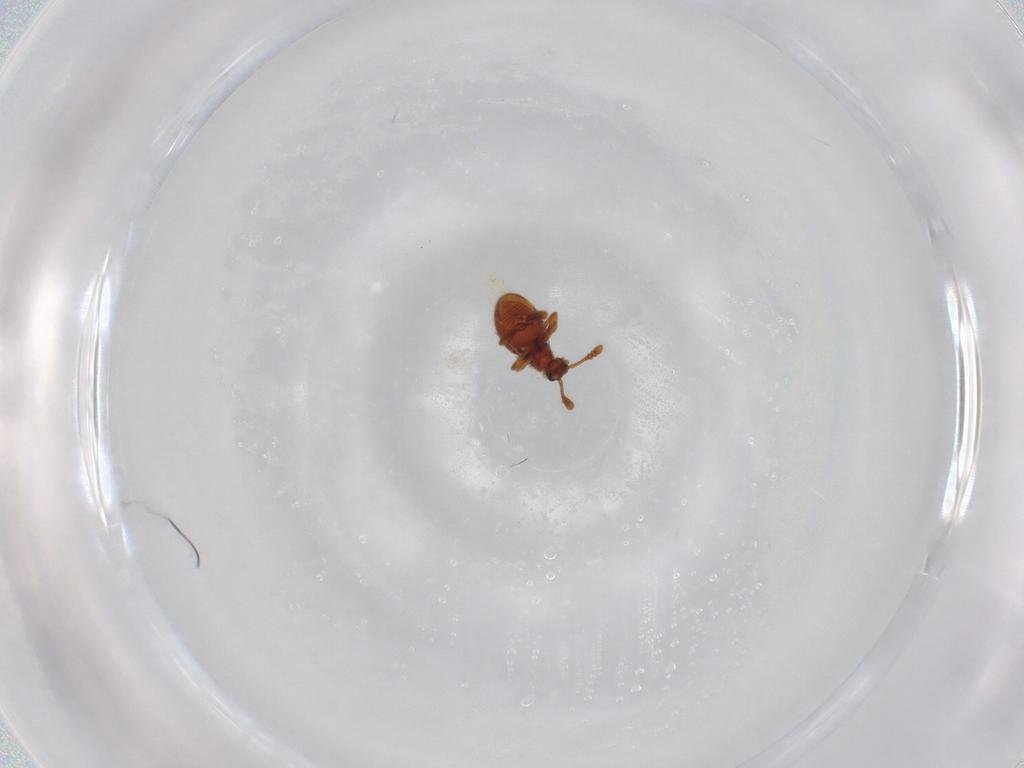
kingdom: Animalia
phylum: Arthropoda
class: Insecta
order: Coleoptera
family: Staphylinidae
